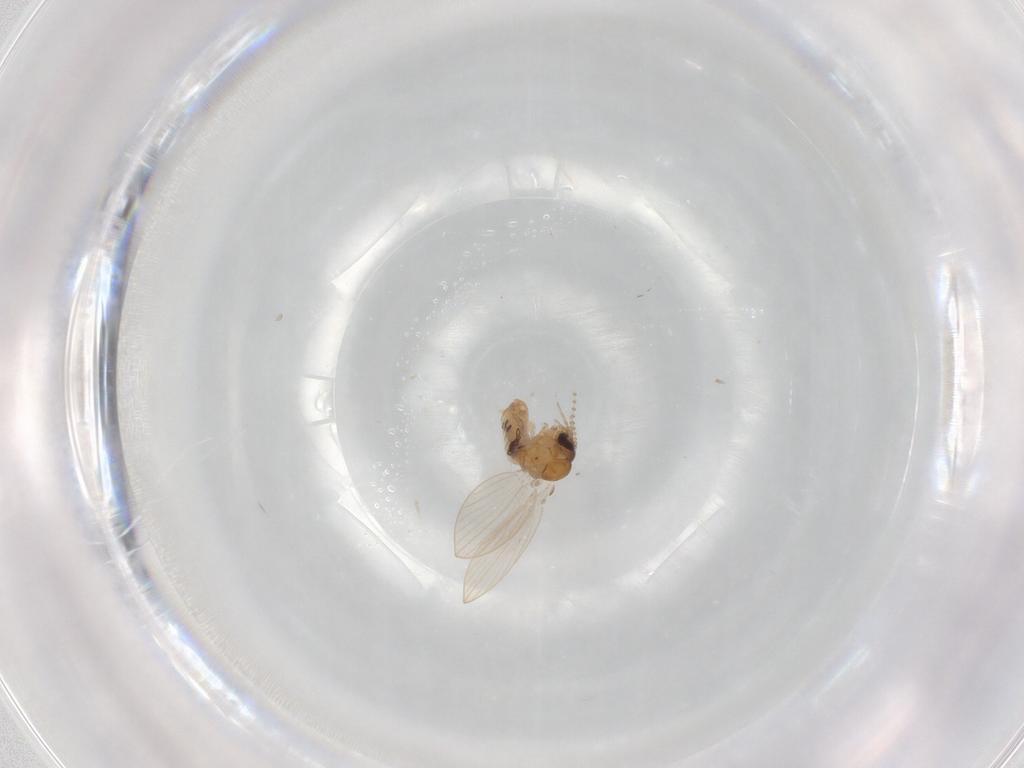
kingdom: Animalia
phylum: Arthropoda
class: Insecta
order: Diptera
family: Psychodidae
